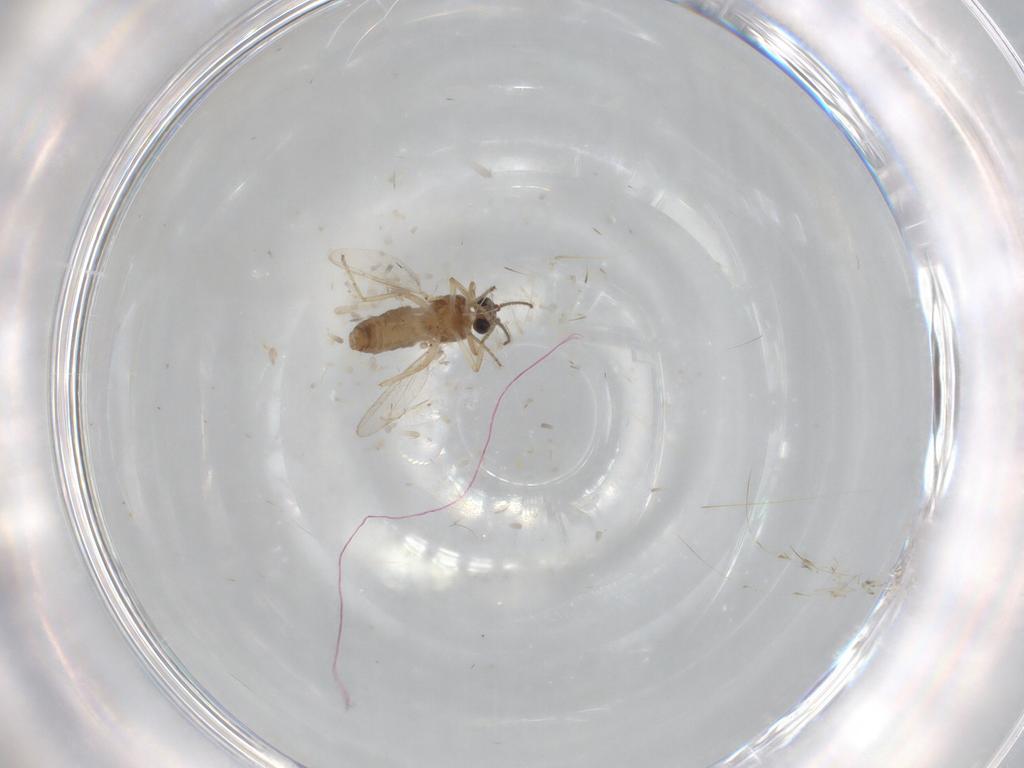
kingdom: Animalia
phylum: Arthropoda
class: Insecta
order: Diptera
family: Ceratopogonidae
